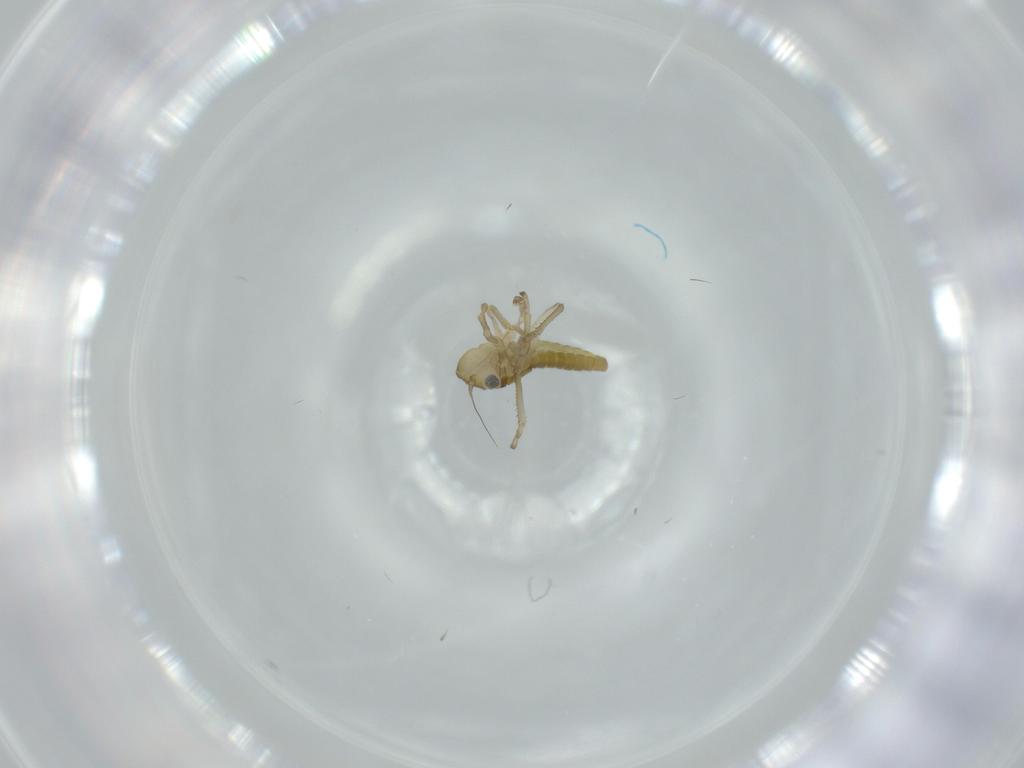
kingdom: Animalia
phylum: Arthropoda
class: Insecta
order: Hemiptera
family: Cicadellidae
